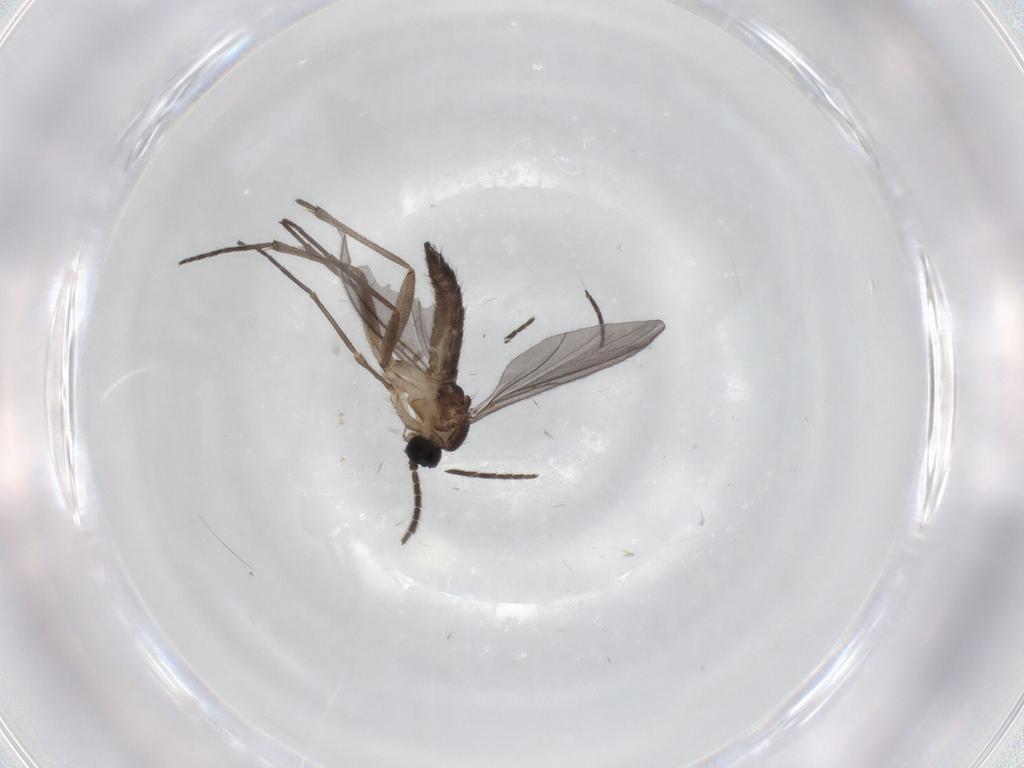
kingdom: Animalia
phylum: Arthropoda
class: Insecta
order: Diptera
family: Sciaridae
